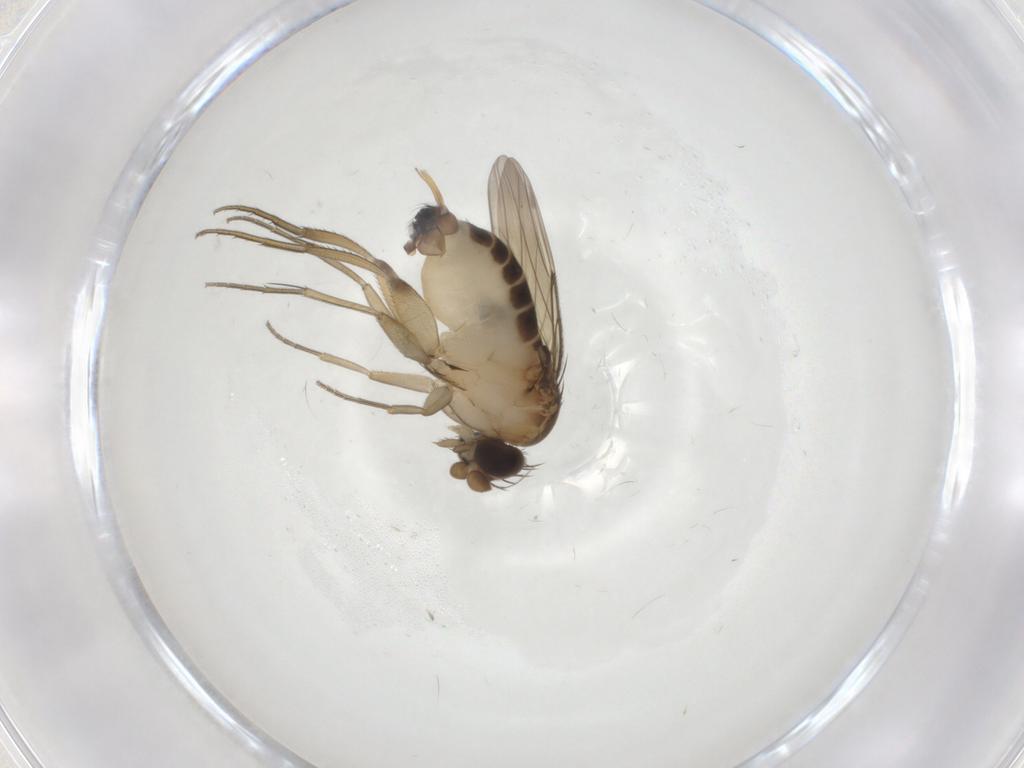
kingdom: Animalia
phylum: Arthropoda
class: Insecta
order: Diptera
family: Phoridae
